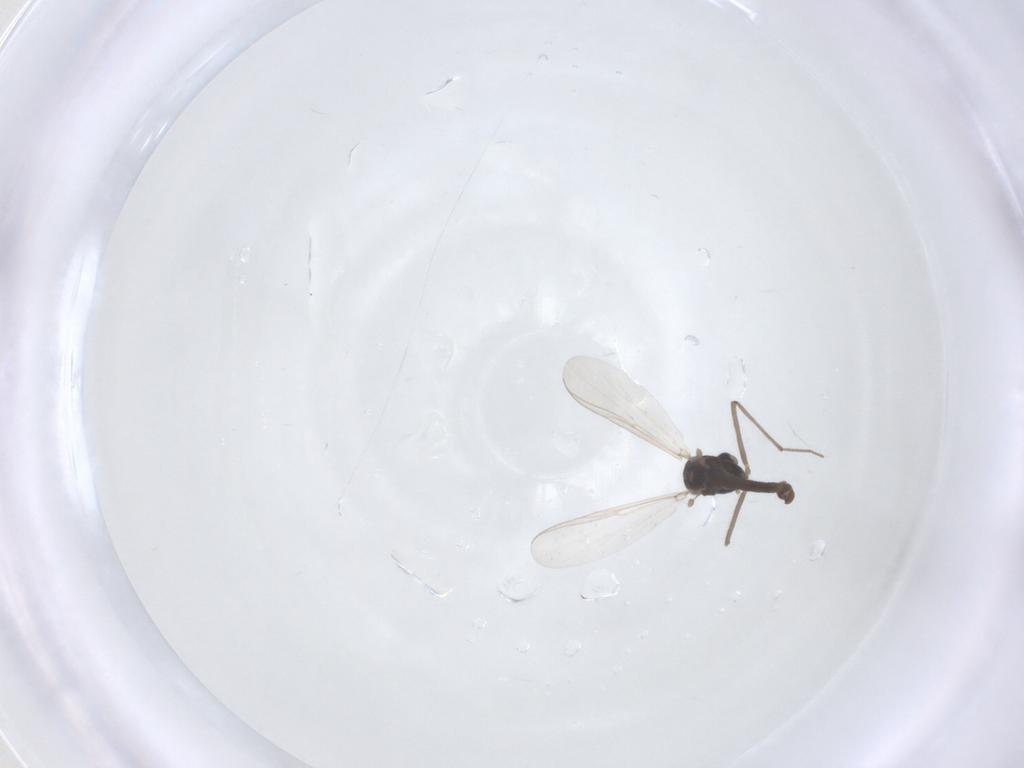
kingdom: Animalia
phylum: Arthropoda
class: Insecta
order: Diptera
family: Chironomidae
